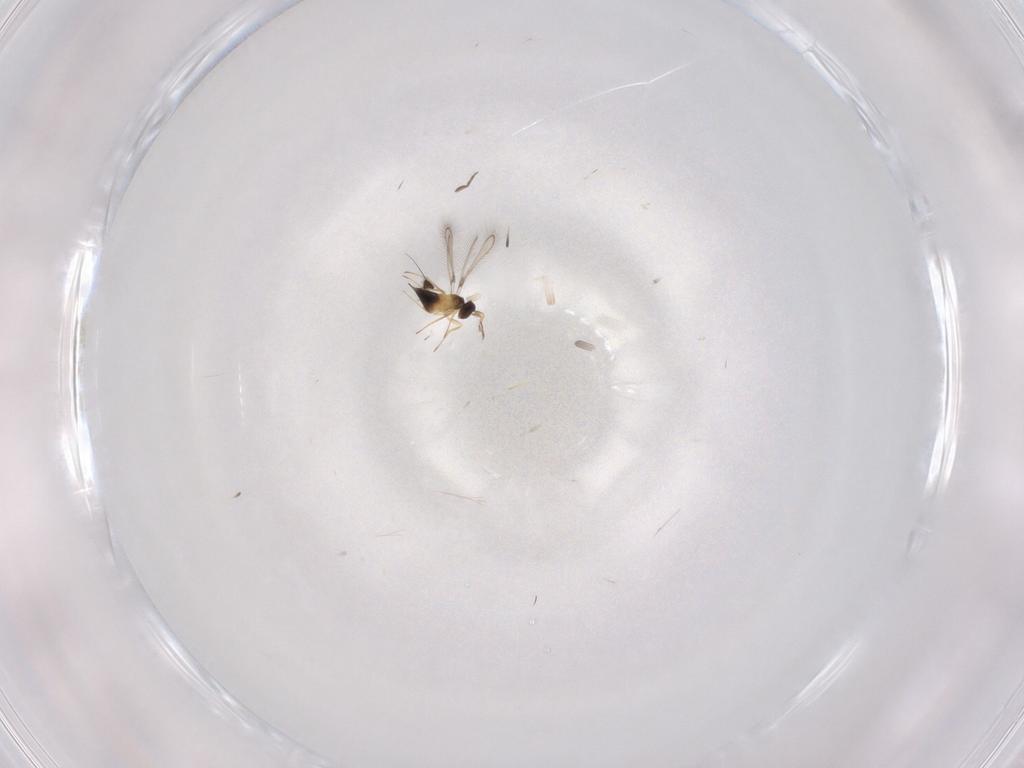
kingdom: Animalia
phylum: Arthropoda
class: Insecta
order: Hymenoptera
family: Mymaridae
